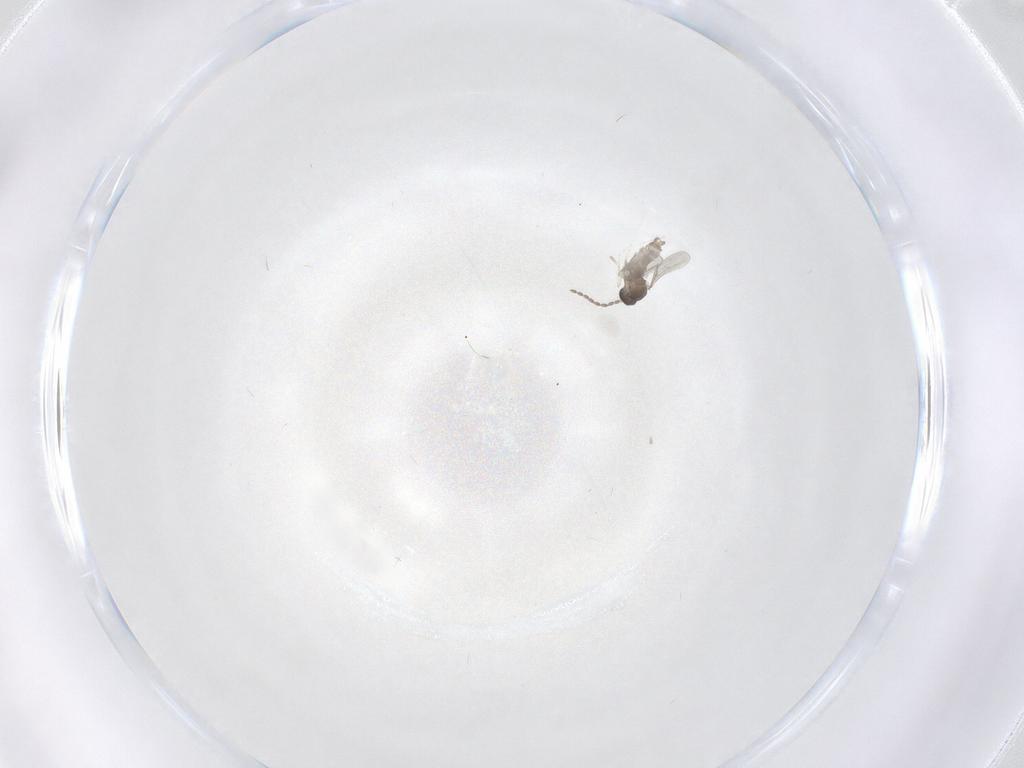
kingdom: Animalia
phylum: Arthropoda
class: Insecta
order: Diptera
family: Cecidomyiidae
